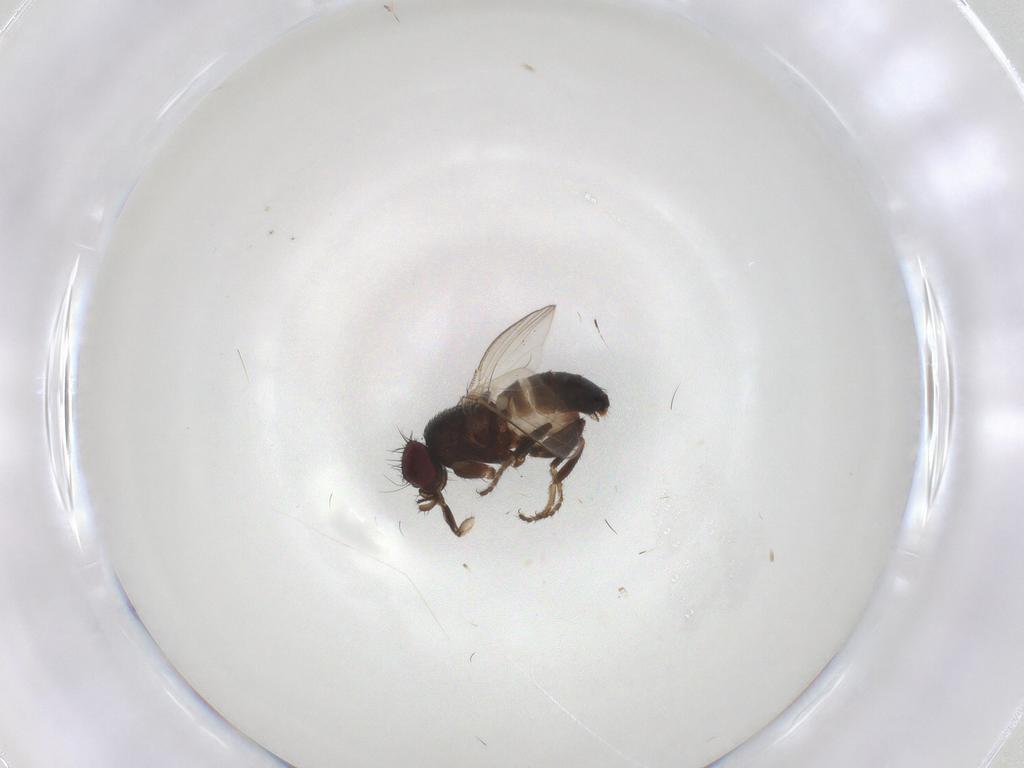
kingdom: Animalia
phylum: Arthropoda
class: Insecta
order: Diptera
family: Milichiidae
